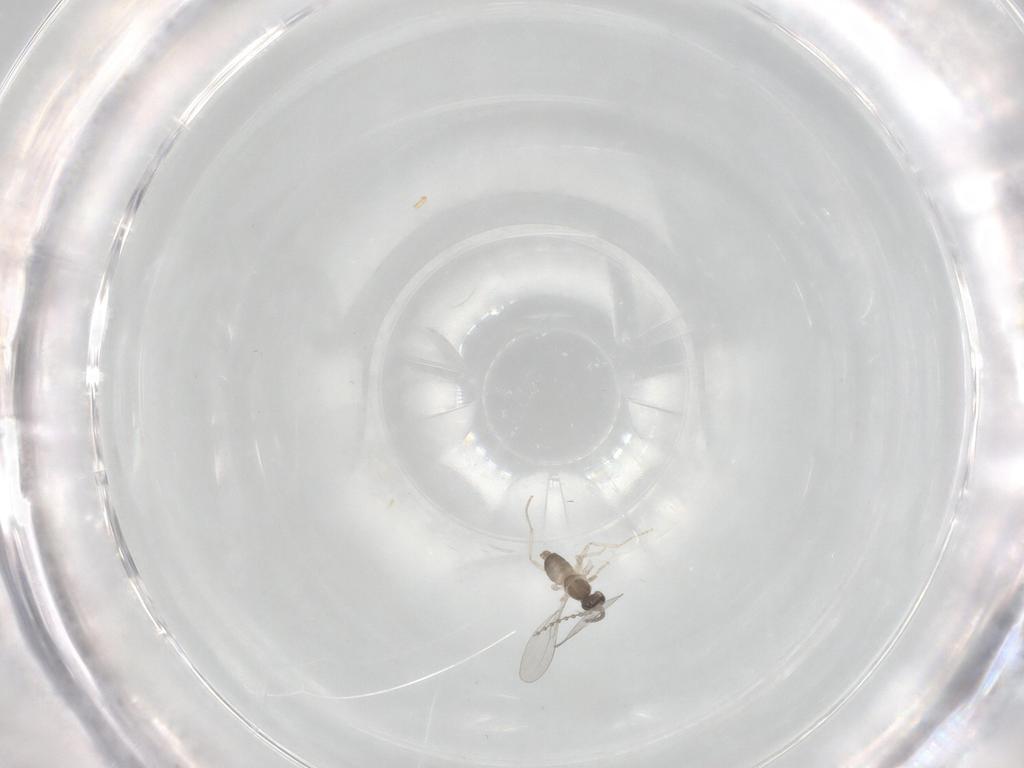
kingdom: Animalia
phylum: Arthropoda
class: Insecta
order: Diptera
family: Cecidomyiidae
